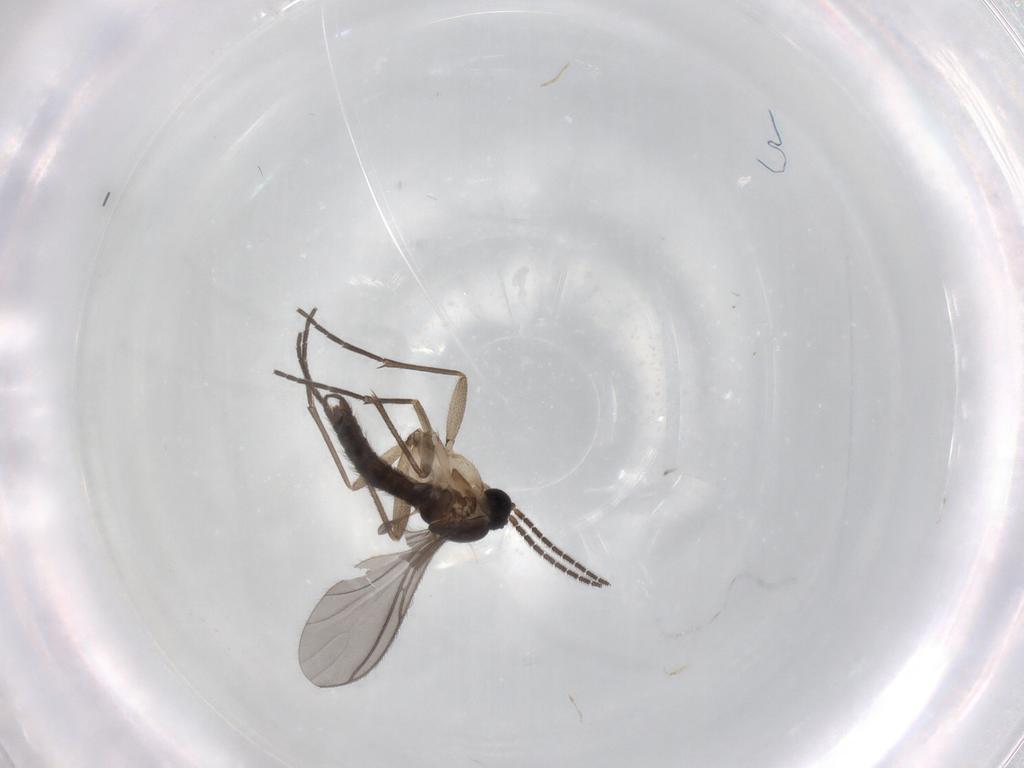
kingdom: Animalia
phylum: Arthropoda
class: Insecta
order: Diptera
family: Sciaridae
